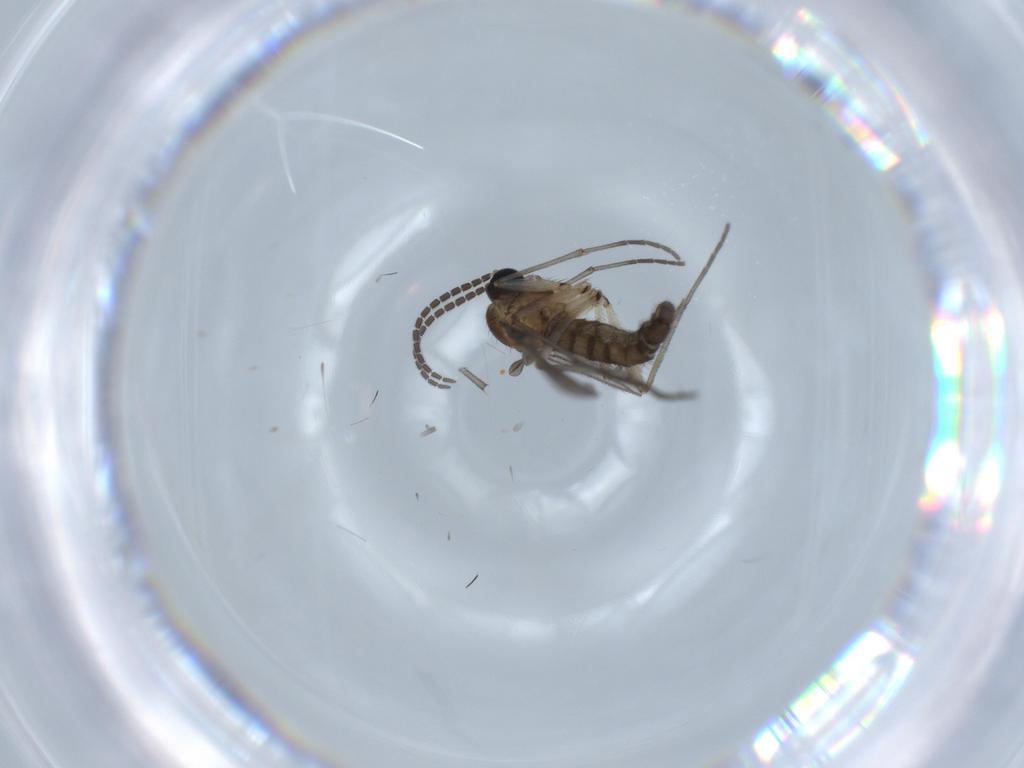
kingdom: Animalia
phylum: Arthropoda
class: Insecta
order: Diptera
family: Sciaridae
